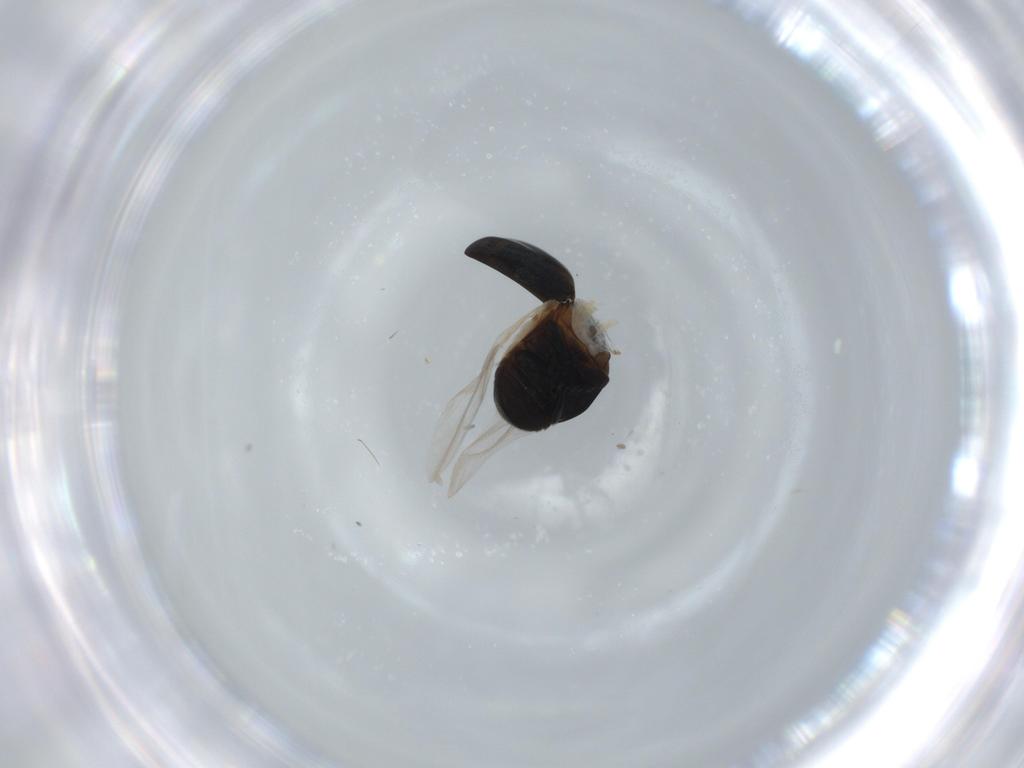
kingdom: Animalia
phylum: Arthropoda
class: Insecta
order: Coleoptera
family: Cybocephalidae
